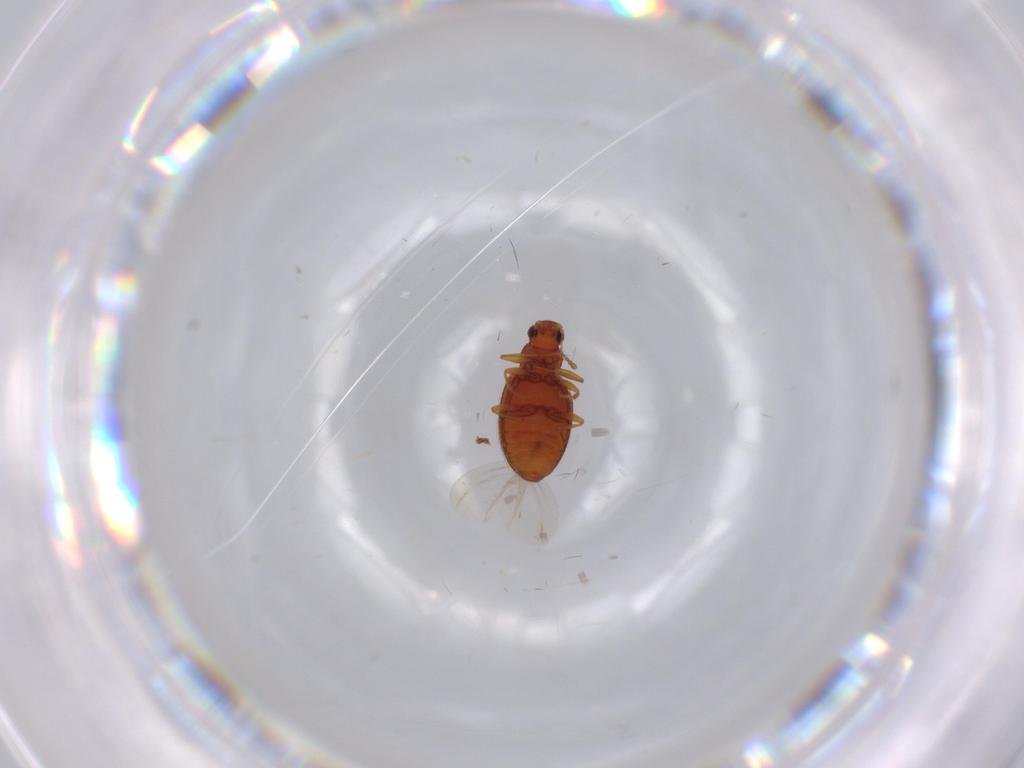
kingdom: Animalia
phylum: Arthropoda
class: Insecta
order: Coleoptera
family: Latridiidae
